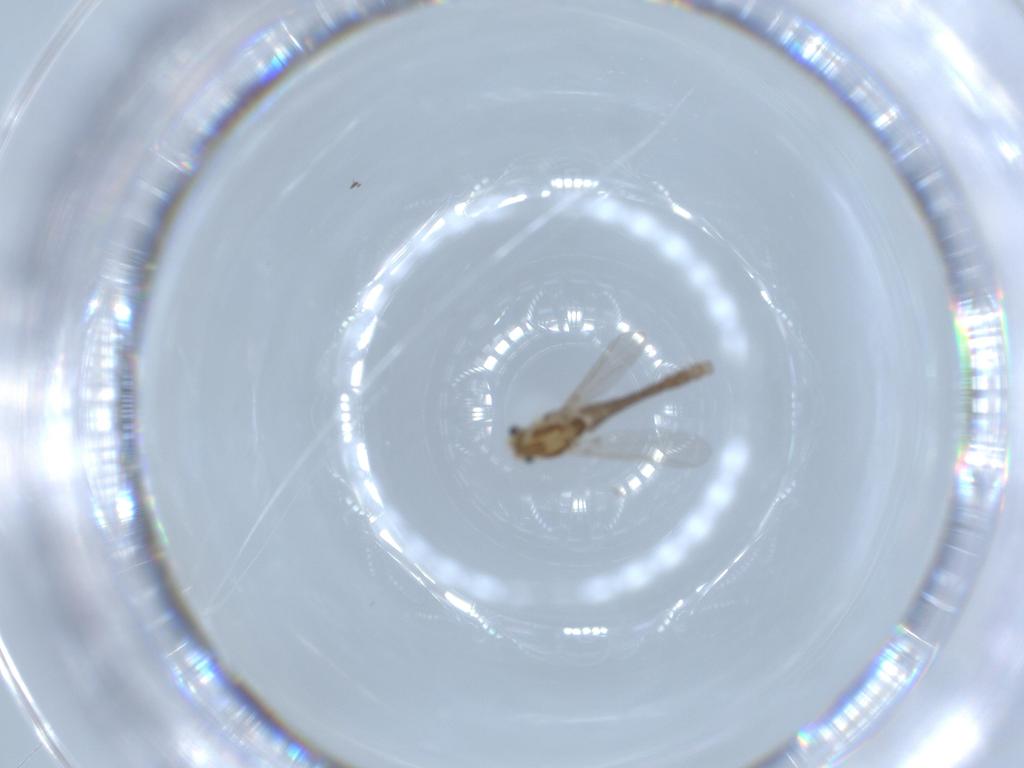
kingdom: Animalia
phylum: Arthropoda
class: Insecta
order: Diptera
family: Chironomidae
